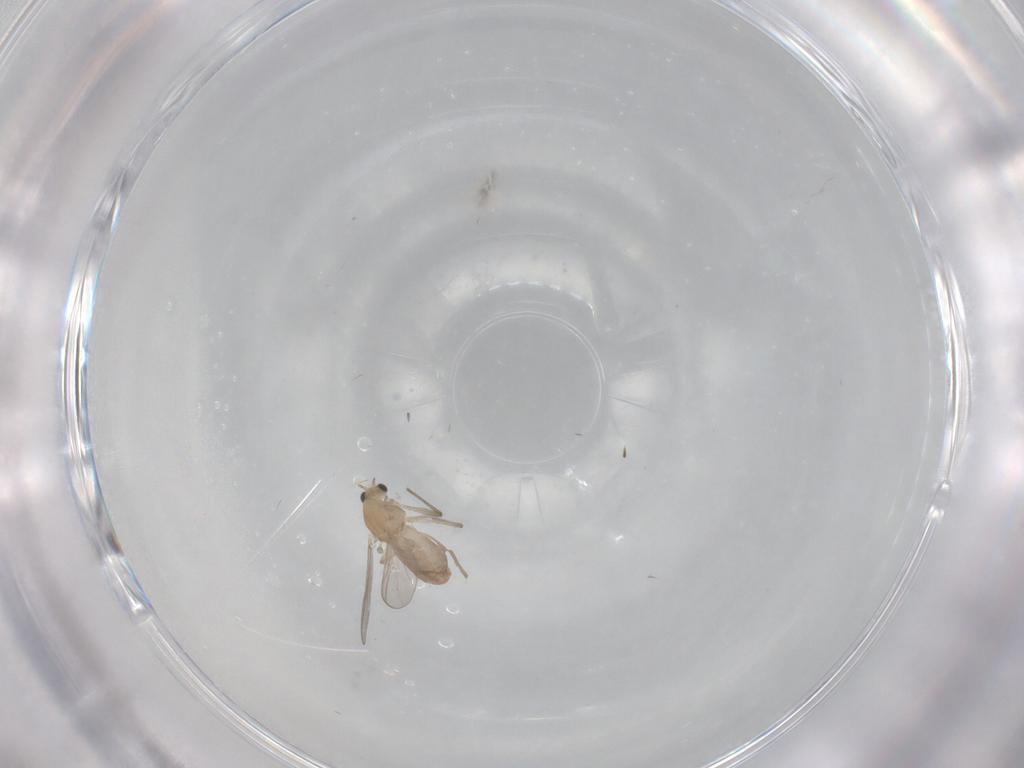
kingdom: Animalia
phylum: Arthropoda
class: Insecta
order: Diptera
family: Chironomidae
